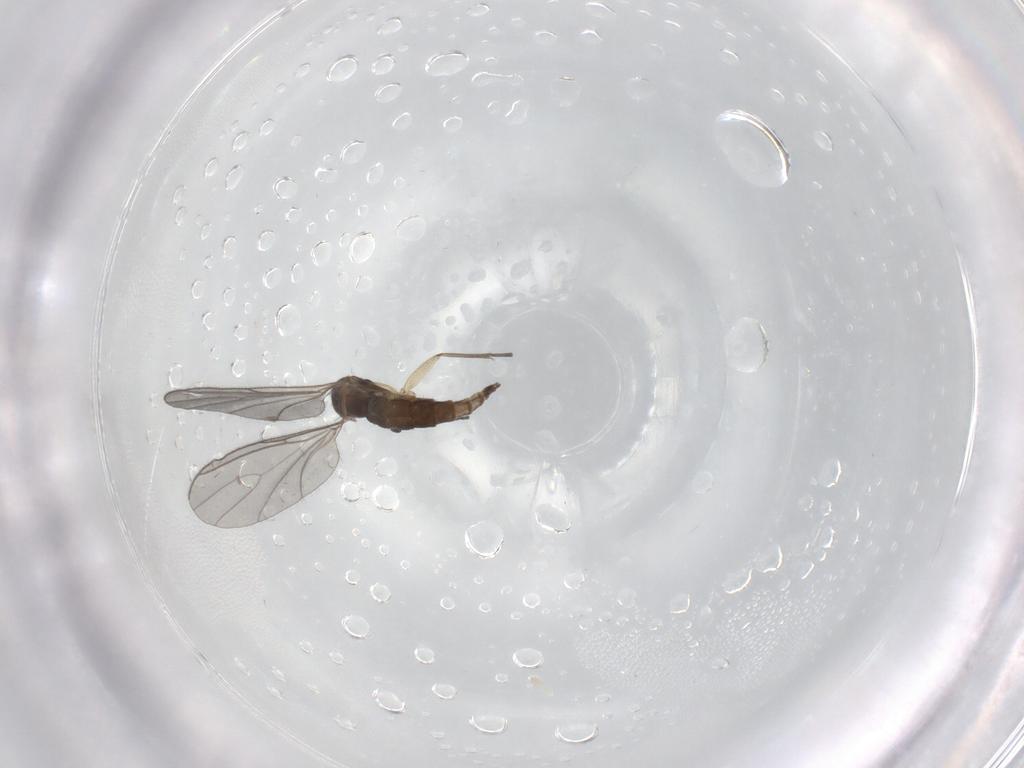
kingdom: Animalia
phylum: Arthropoda
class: Insecta
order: Diptera
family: Sciaridae
